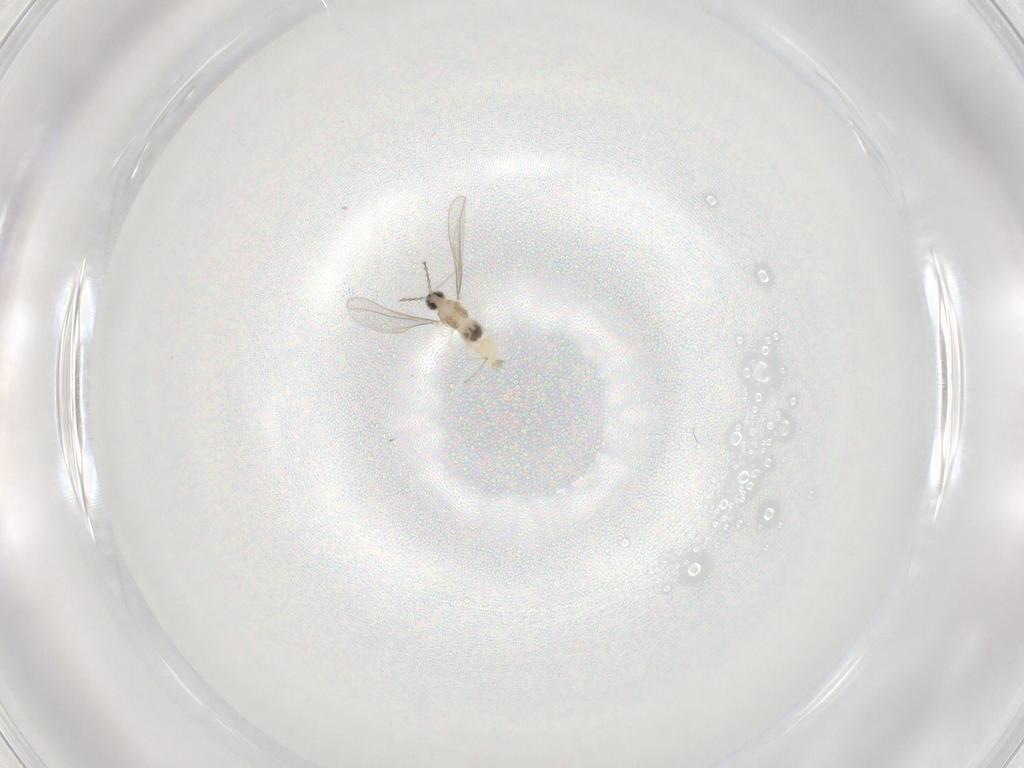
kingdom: Animalia
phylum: Arthropoda
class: Insecta
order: Diptera
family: Cecidomyiidae
